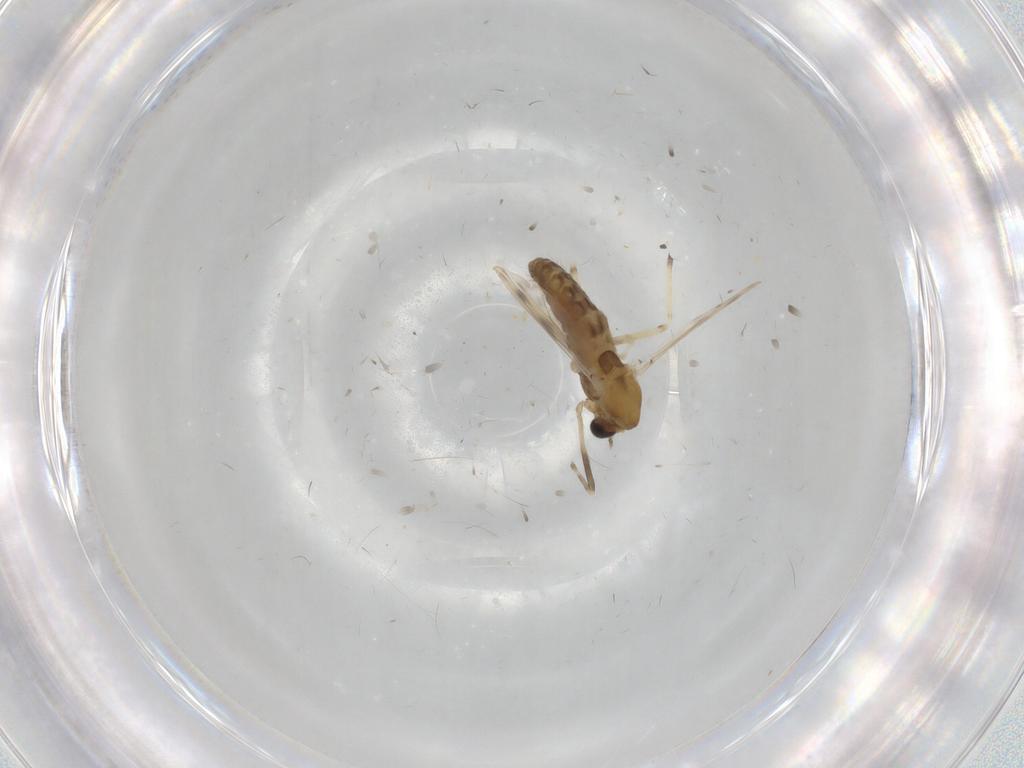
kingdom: Animalia
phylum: Arthropoda
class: Insecta
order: Diptera
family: Chironomidae
